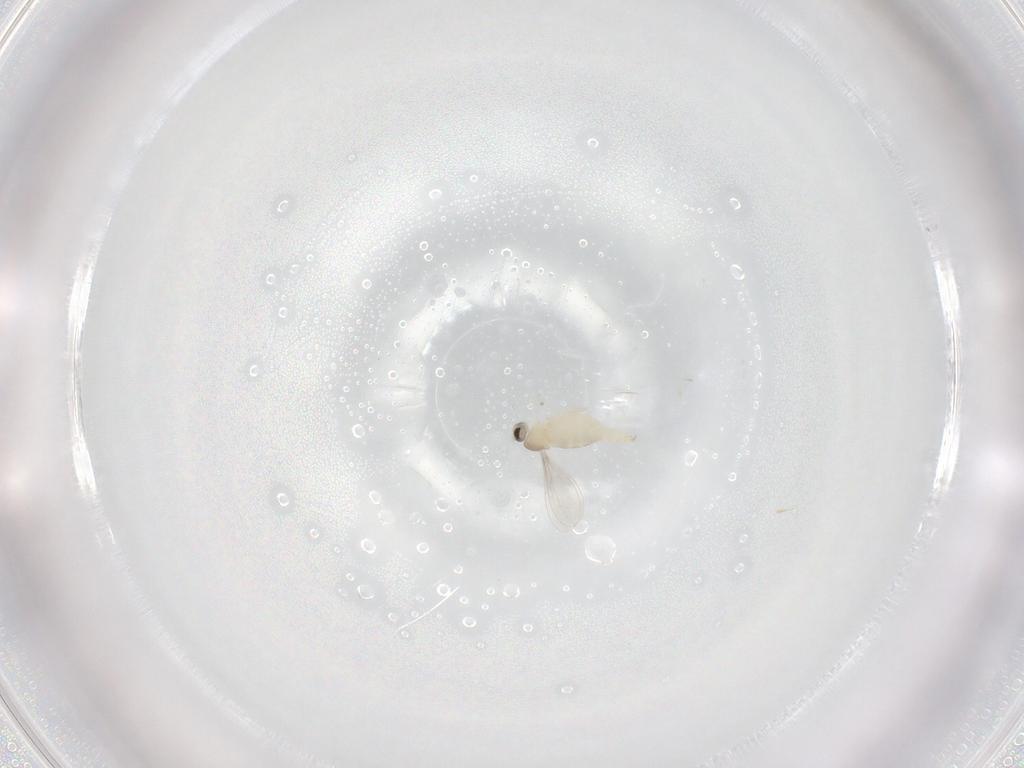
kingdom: Animalia
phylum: Arthropoda
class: Insecta
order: Diptera
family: Cecidomyiidae
